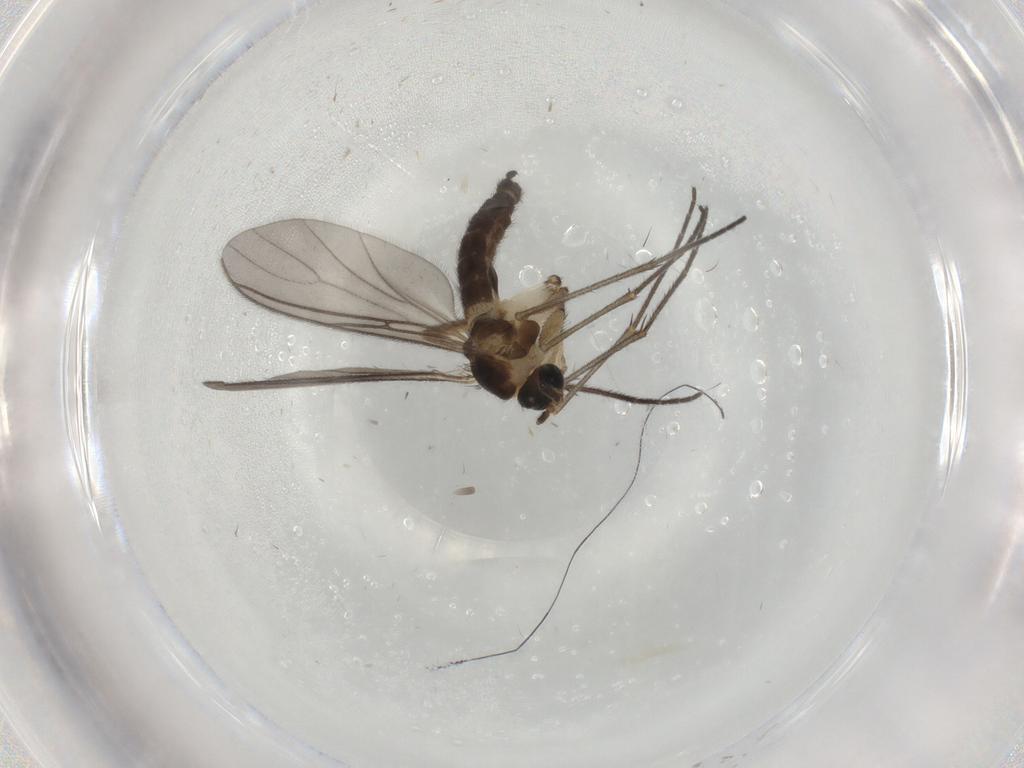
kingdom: Animalia
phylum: Arthropoda
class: Insecta
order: Diptera
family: Sciaridae
